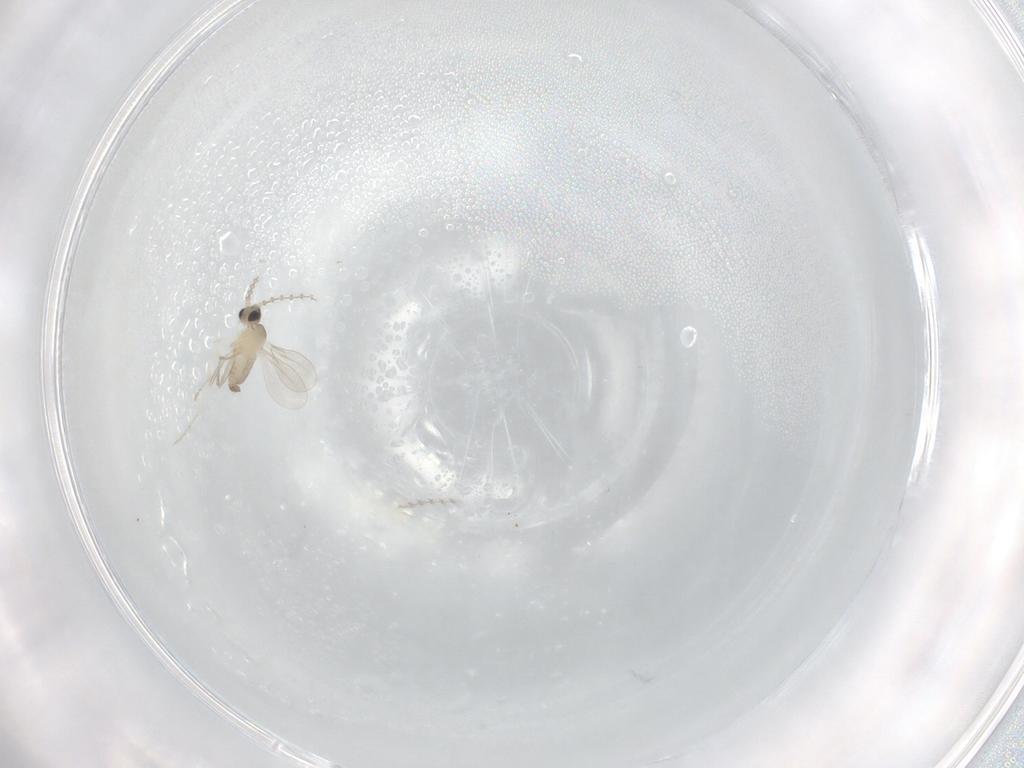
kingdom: Animalia
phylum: Arthropoda
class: Insecta
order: Diptera
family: Cecidomyiidae
